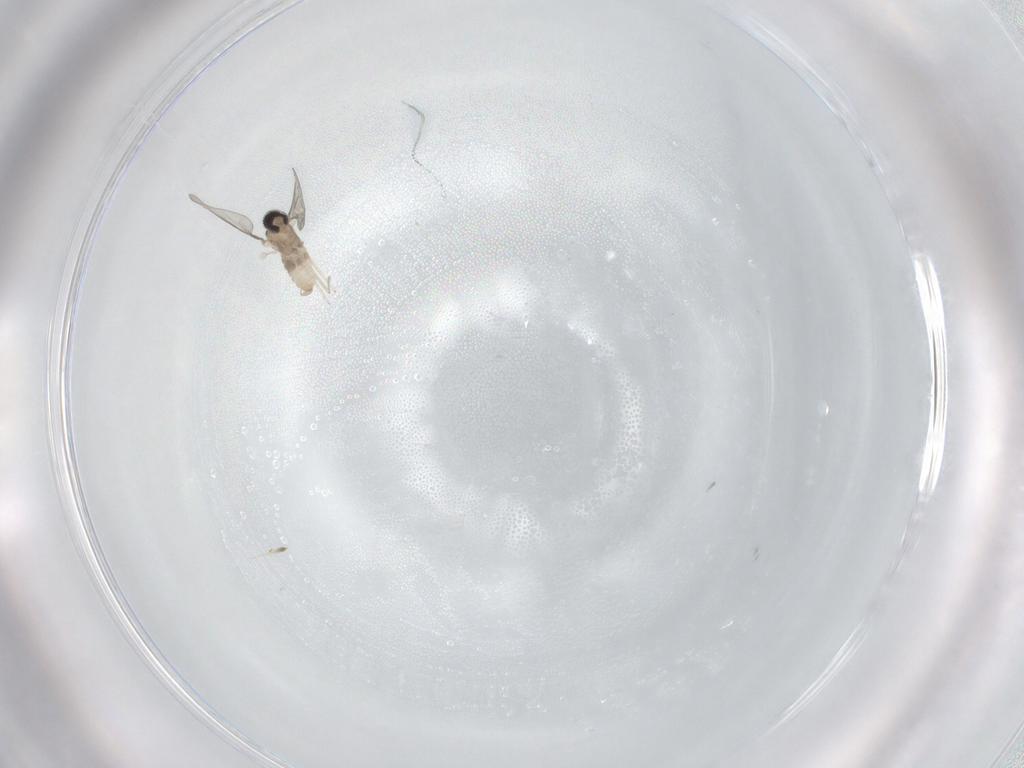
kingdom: Animalia
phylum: Arthropoda
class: Insecta
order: Diptera
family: Cecidomyiidae
